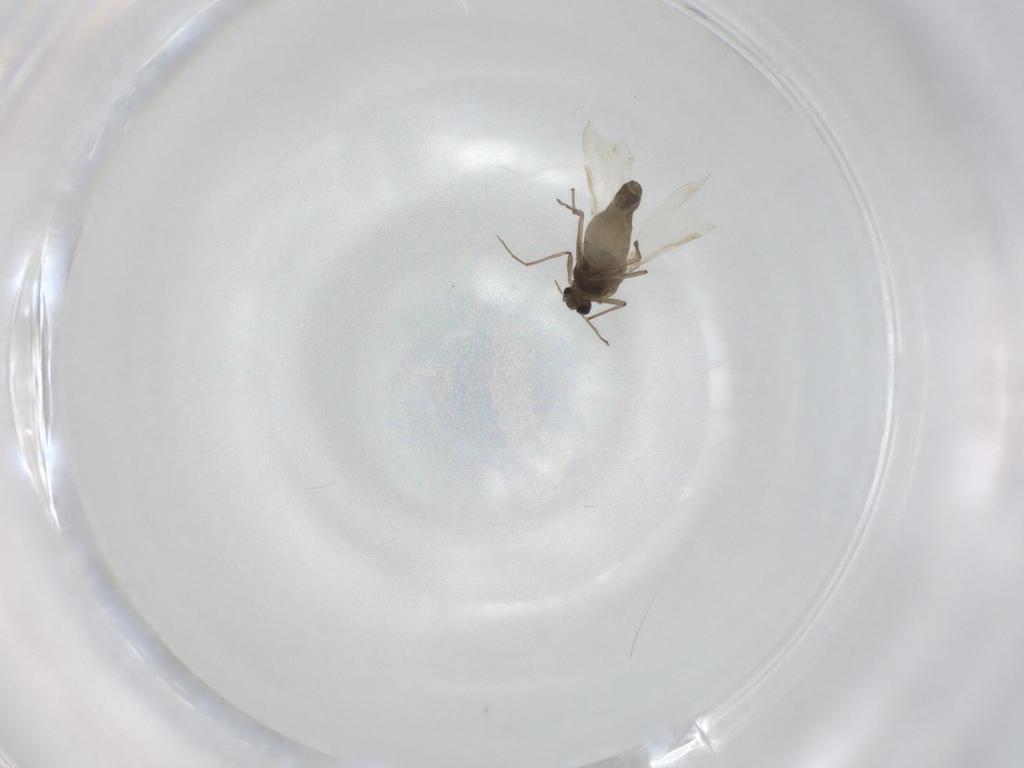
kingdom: Animalia
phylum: Arthropoda
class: Insecta
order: Diptera
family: Chironomidae
